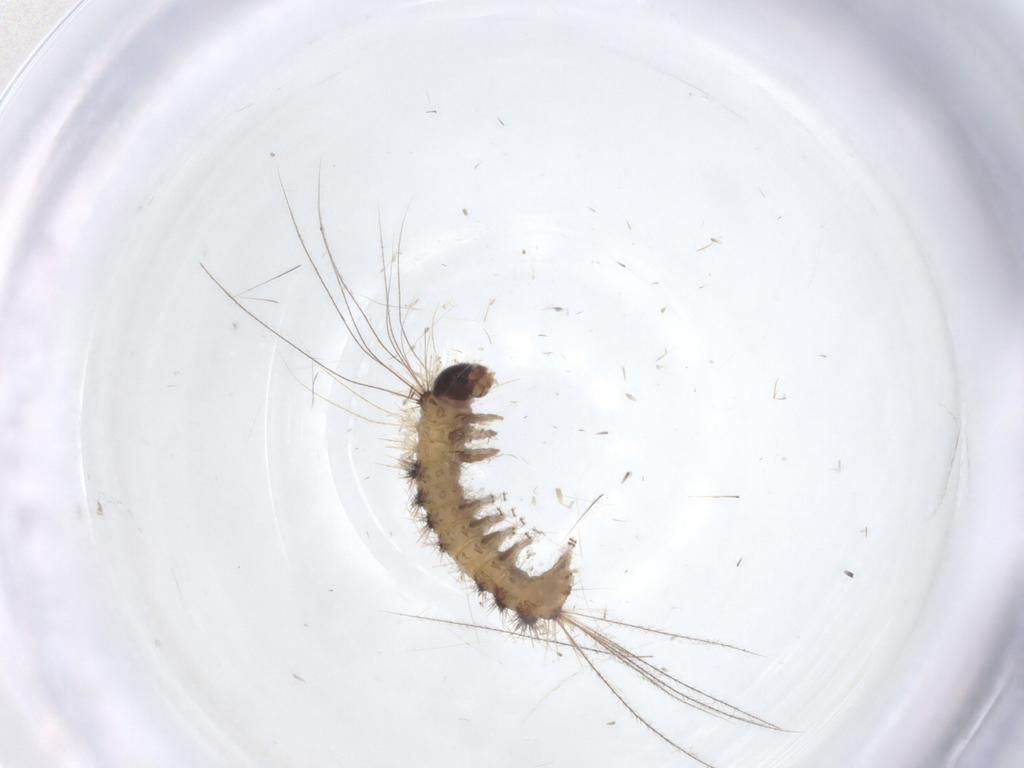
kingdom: Animalia
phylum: Arthropoda
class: Insecta
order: Lepidoptera
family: Erebidae
